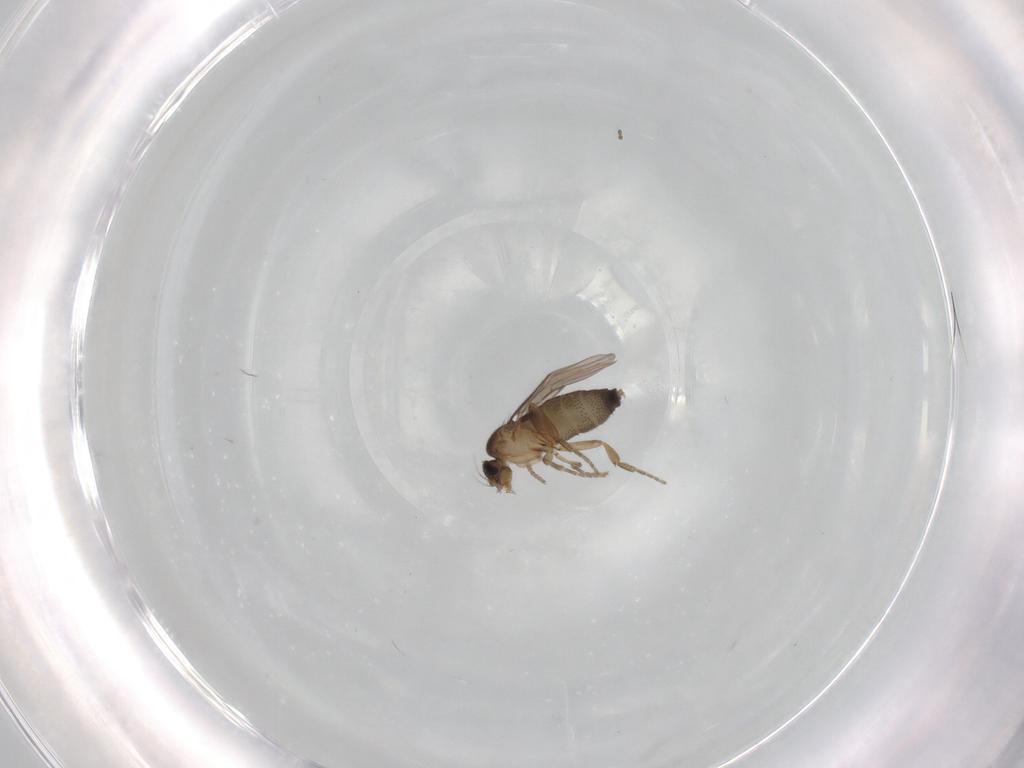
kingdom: Animalia
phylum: Arthropoda
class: Insecta
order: Diptera
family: Phoridae
